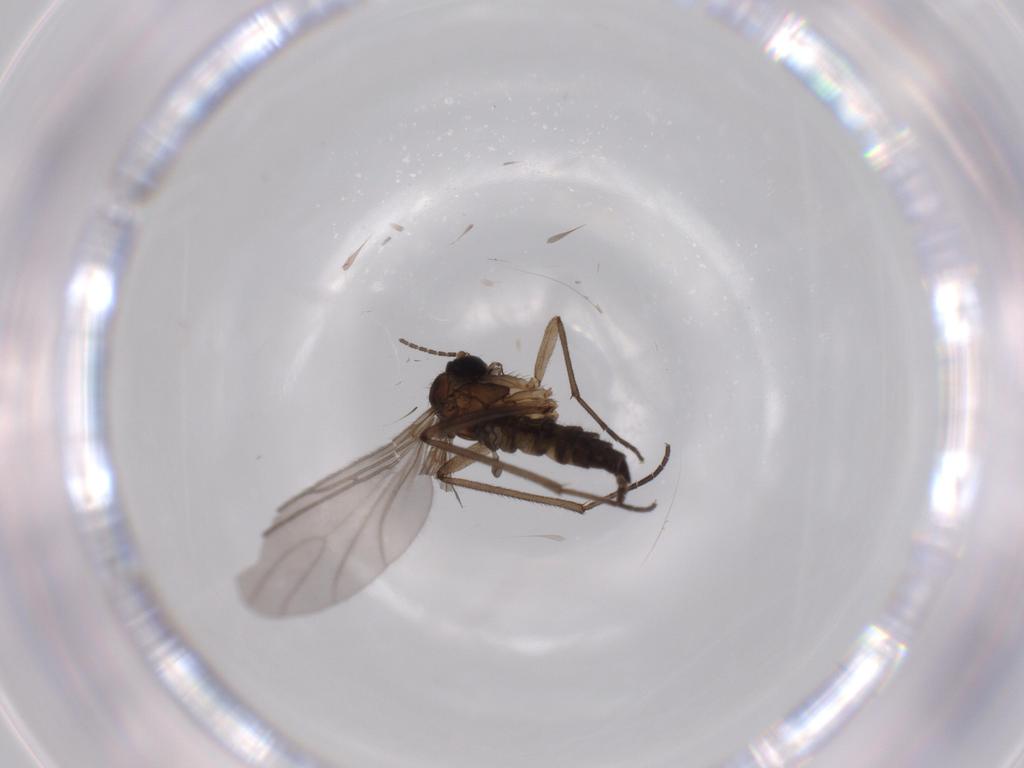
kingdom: Animalia
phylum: Arthropoda
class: Insecta
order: Diptera
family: Sciaridae
